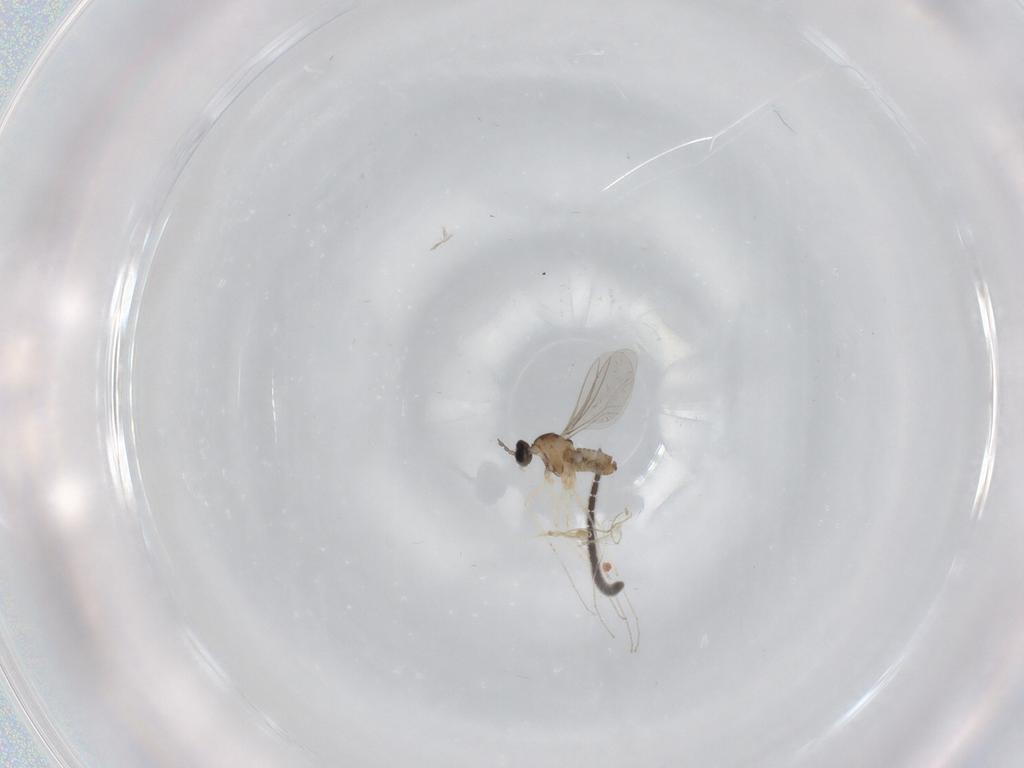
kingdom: Animalia
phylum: Arthropoda
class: Insecta
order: Diptera
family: Cecidomyiidae
